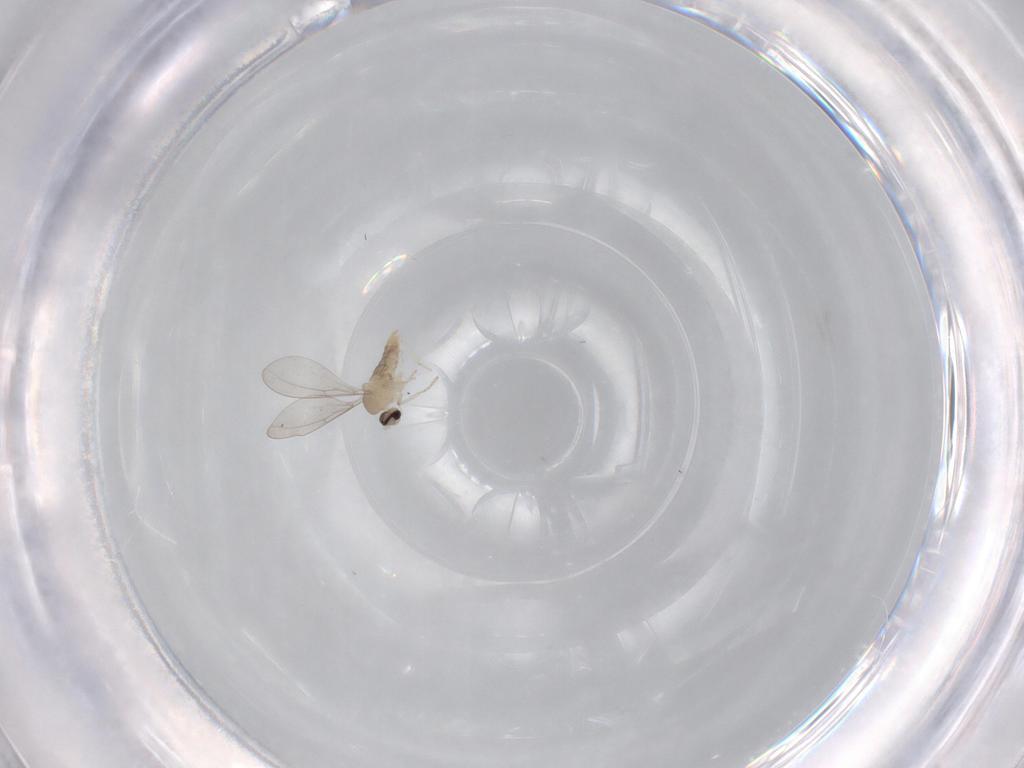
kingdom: Animalia
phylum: Arthropoda
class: Insecta
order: Diptera
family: Cecidomyiidae
